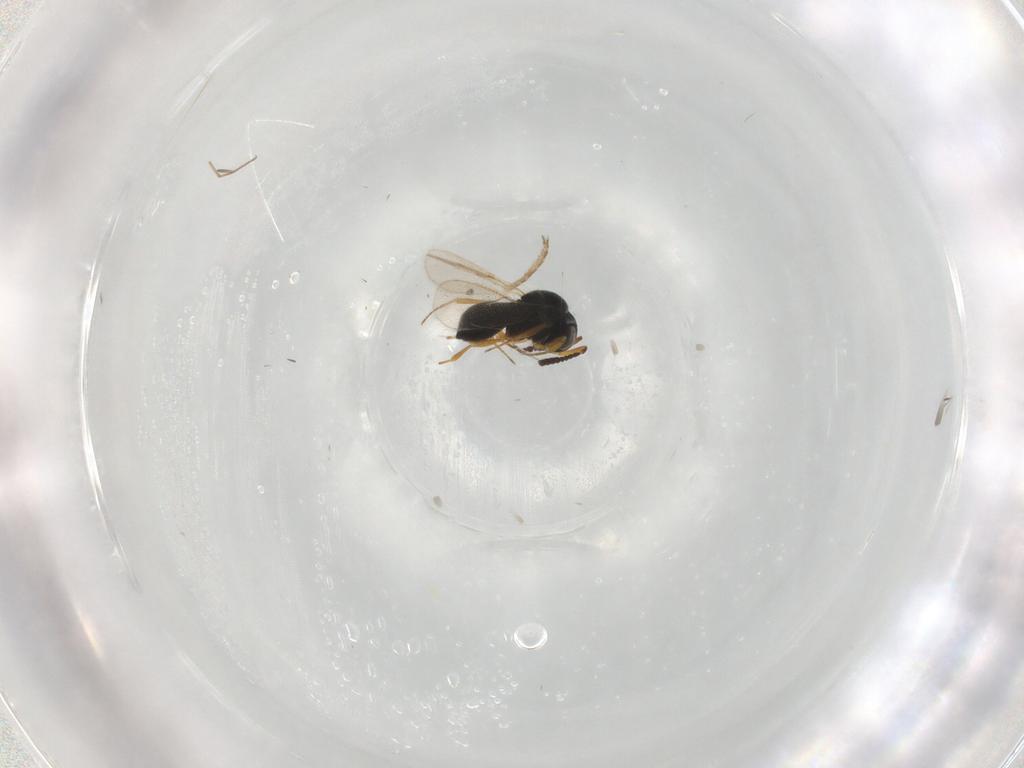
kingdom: Animalia
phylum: Arthropoda
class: Insecta
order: Hymenoptera
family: Scelionidae
